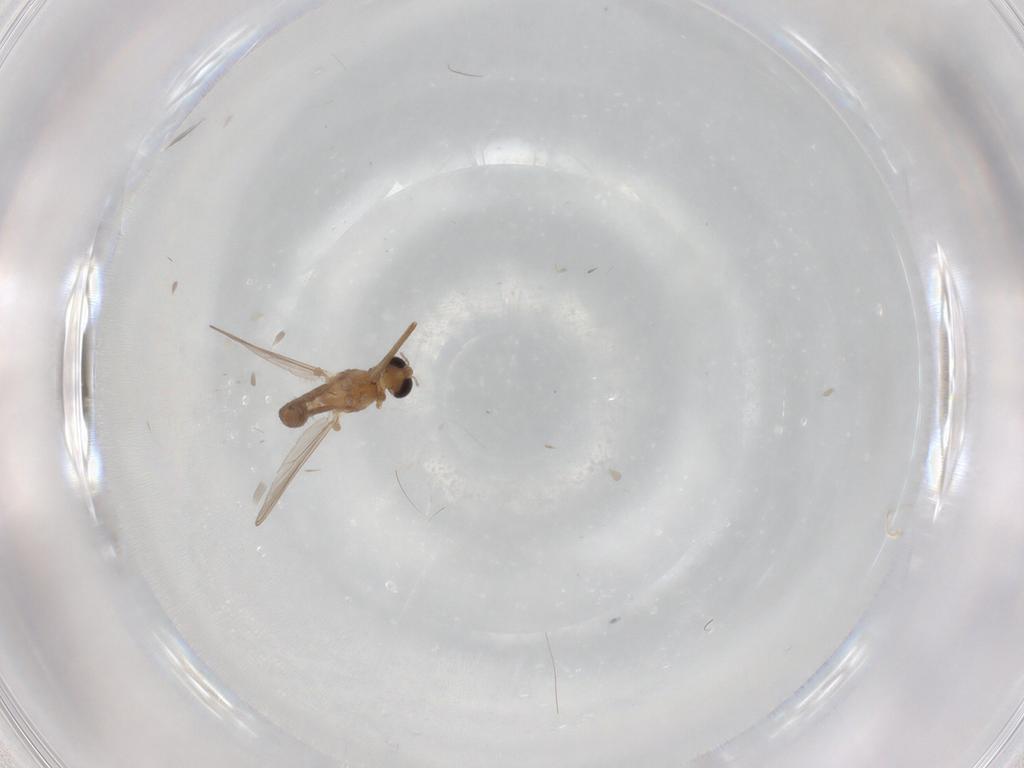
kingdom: Animalia
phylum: Arthropoda
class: Insecta
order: Diptera
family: Chironomidae
